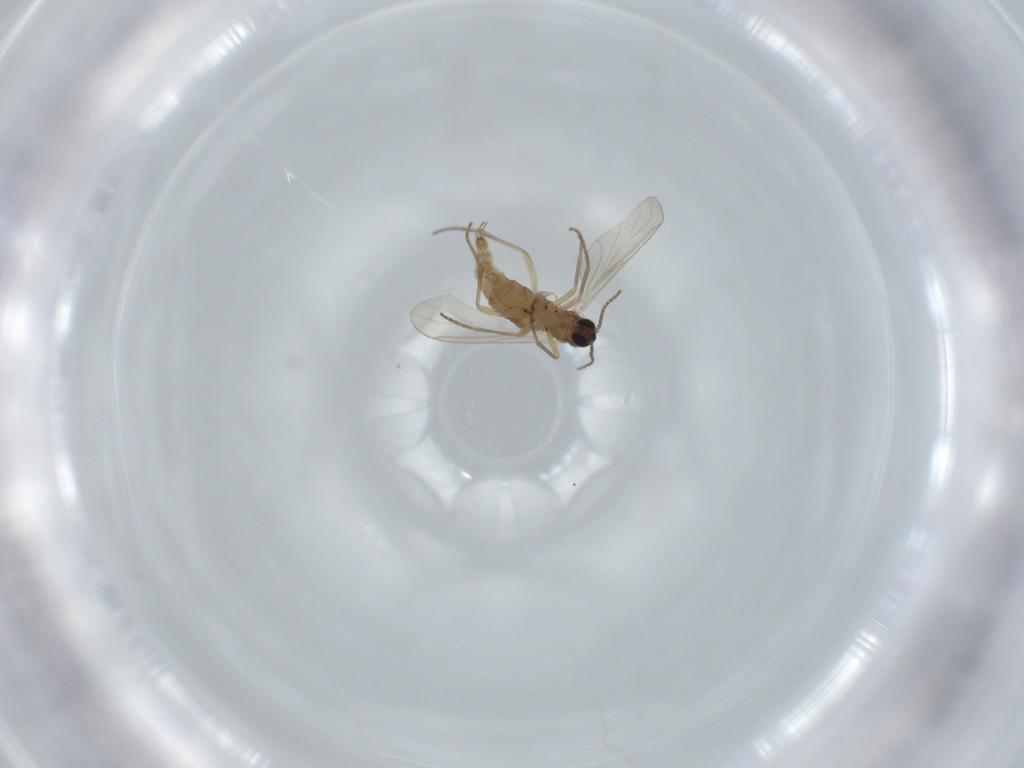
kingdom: Animalia
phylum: Arthropoda
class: Insecta
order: Diptera
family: Sciaridae
